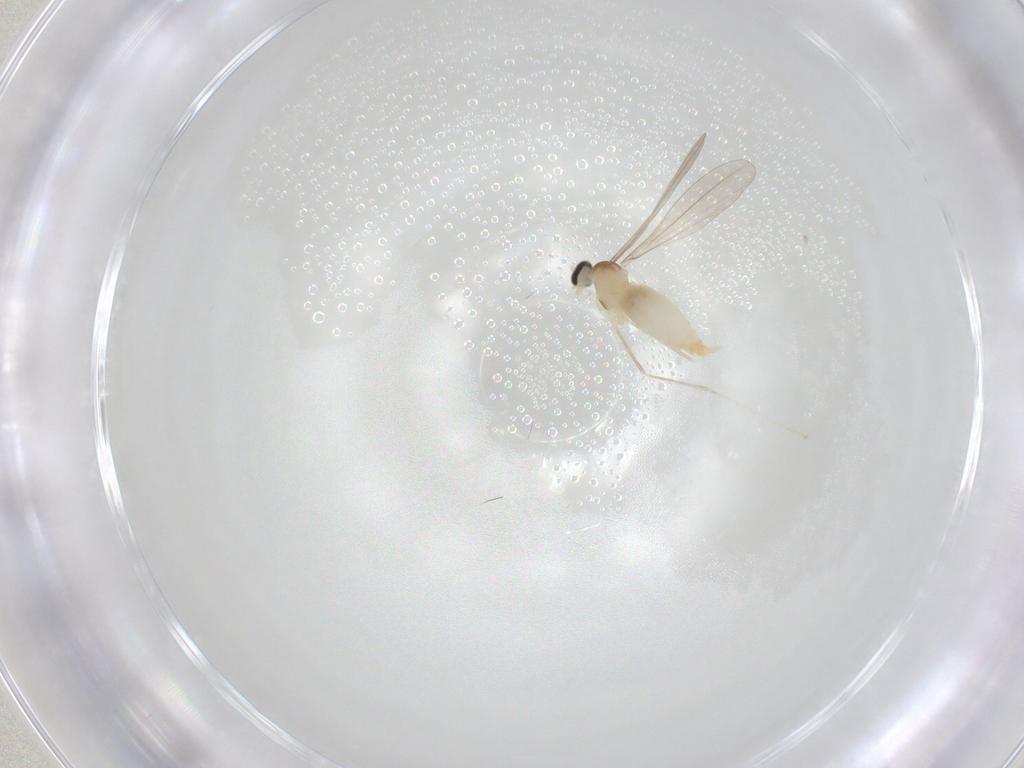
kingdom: Animalia
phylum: Arthropoda
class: Insecta
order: Diptera
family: Cecidomyiidae
